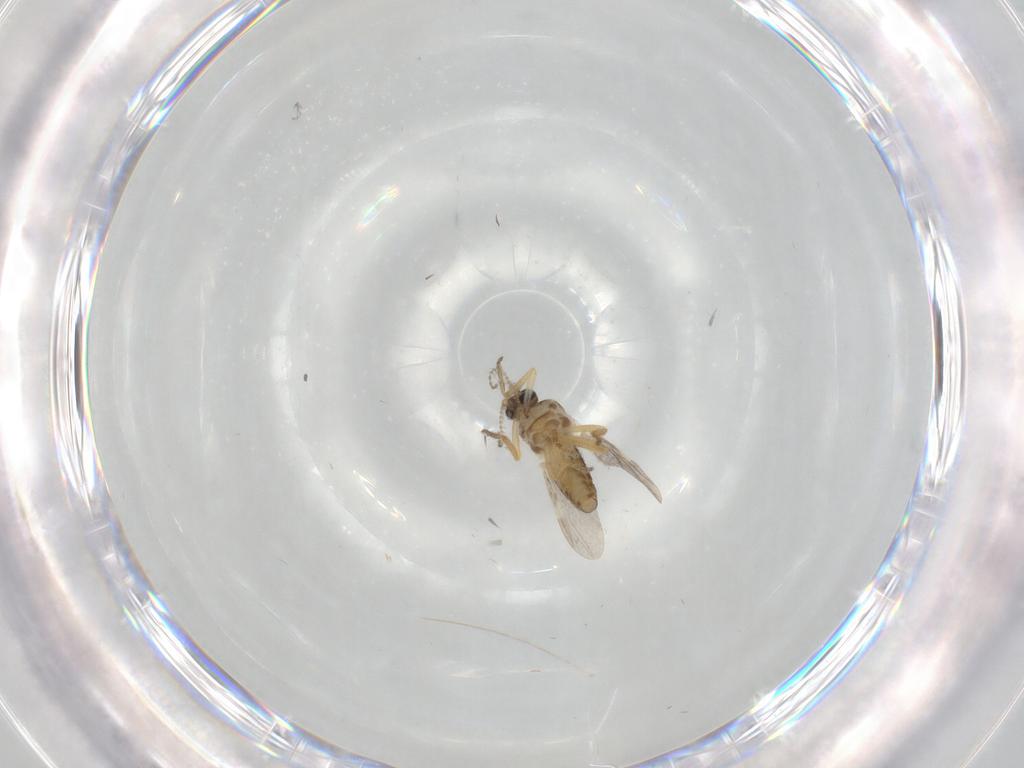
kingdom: Animalia
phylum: Arthropoda
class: Insecta
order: Diptera
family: Ceratopogonidae
